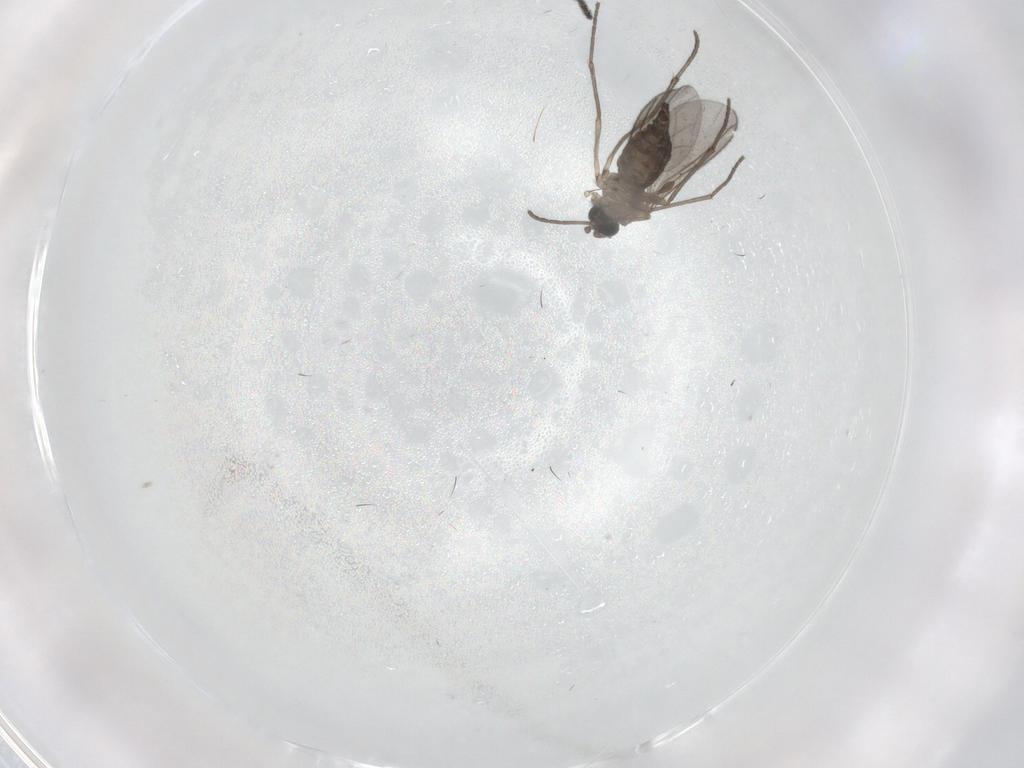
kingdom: Animalia
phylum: Arthropoda
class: Insecta
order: Diptera
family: Sciaridae
